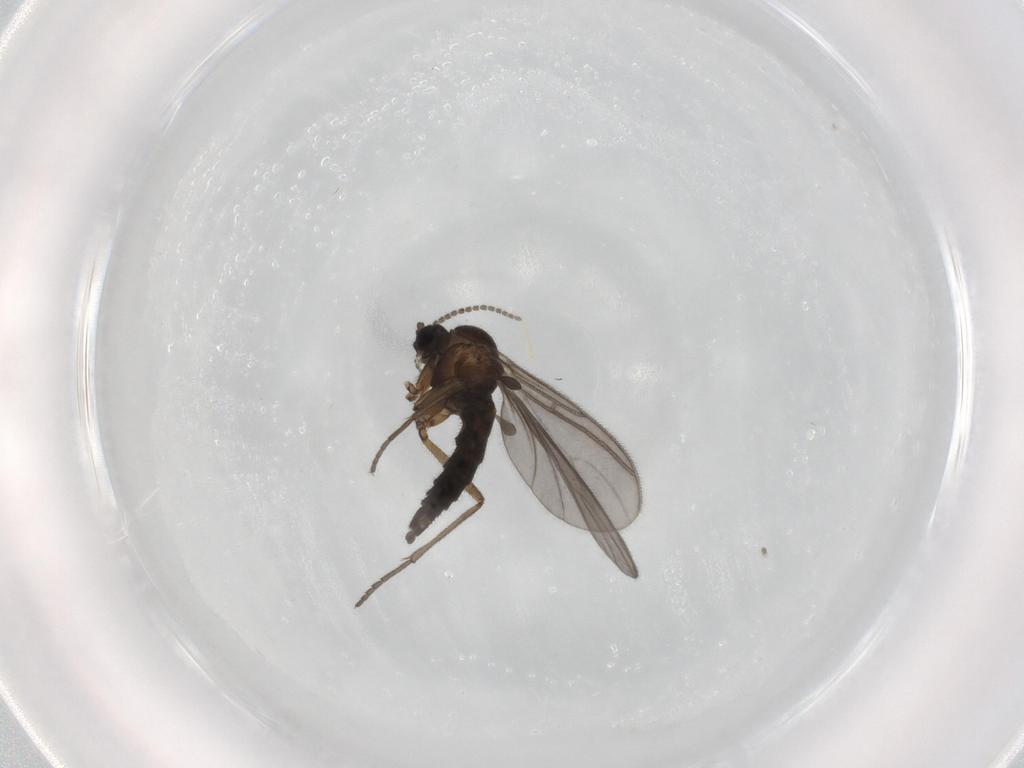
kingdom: Animalia
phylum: Arthropoda
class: Insecta
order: Diptera
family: Sciaridae
